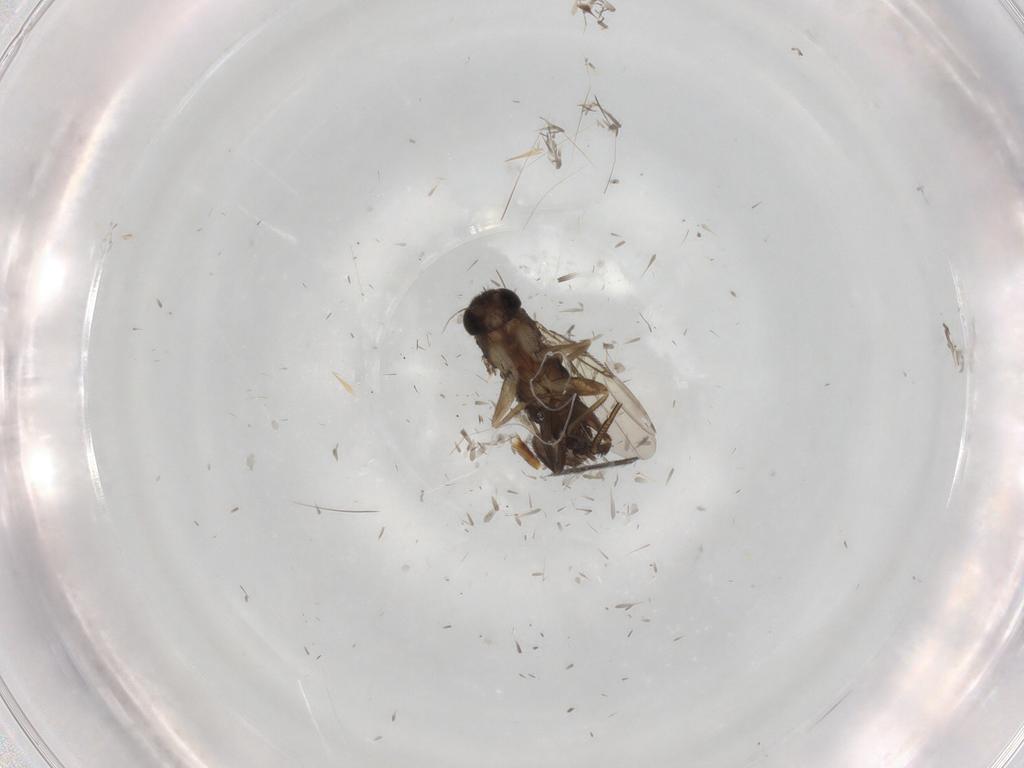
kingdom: Animalia
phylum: Arthropoda
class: Insecta
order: Diptera
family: Phoridae
